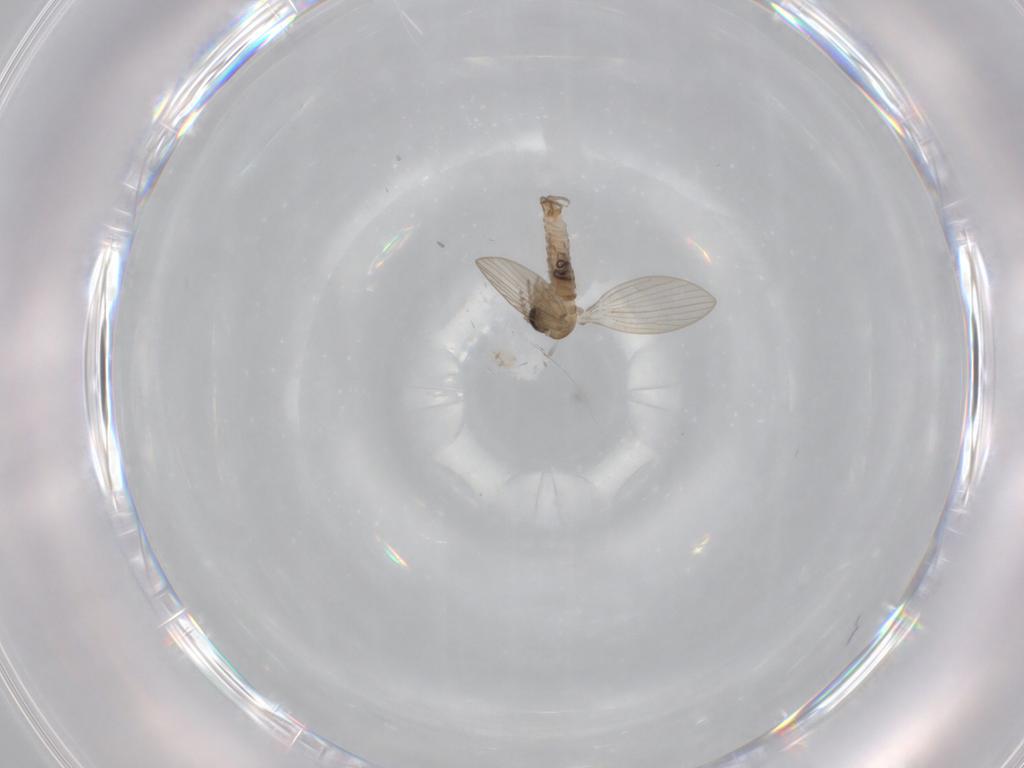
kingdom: Animalia
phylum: Arthropoda
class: Insecta
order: Diptera
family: Psychodidae
